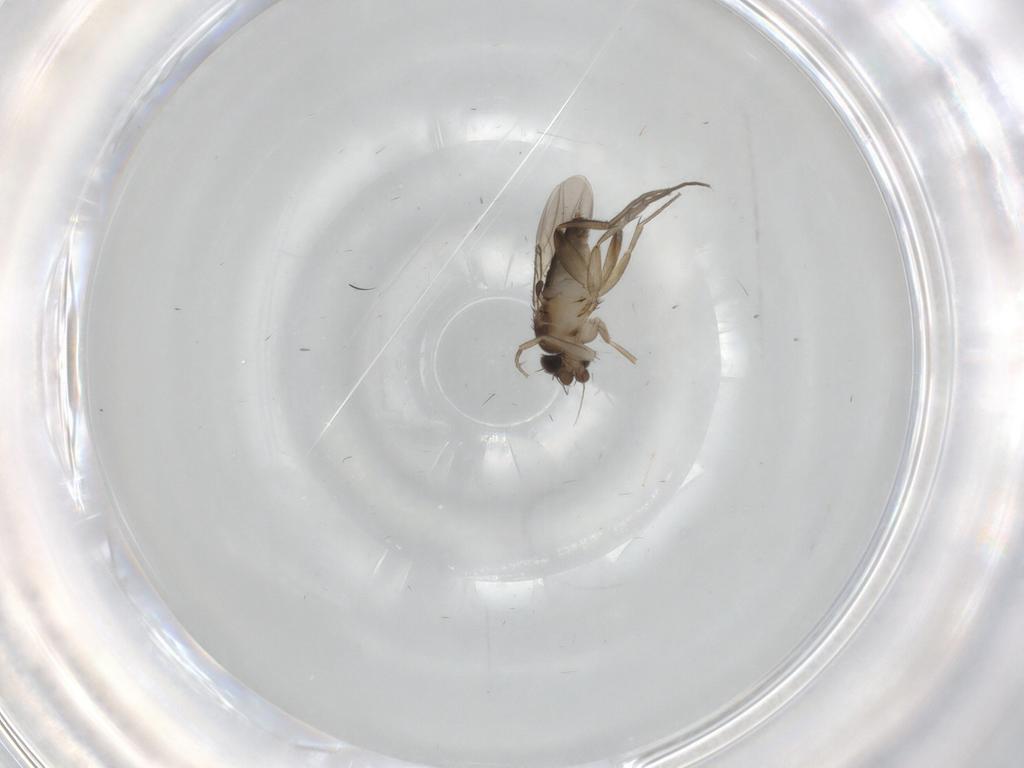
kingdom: Animalia
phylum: Arthropoda
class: Insecta
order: Diptera
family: Phoridae
